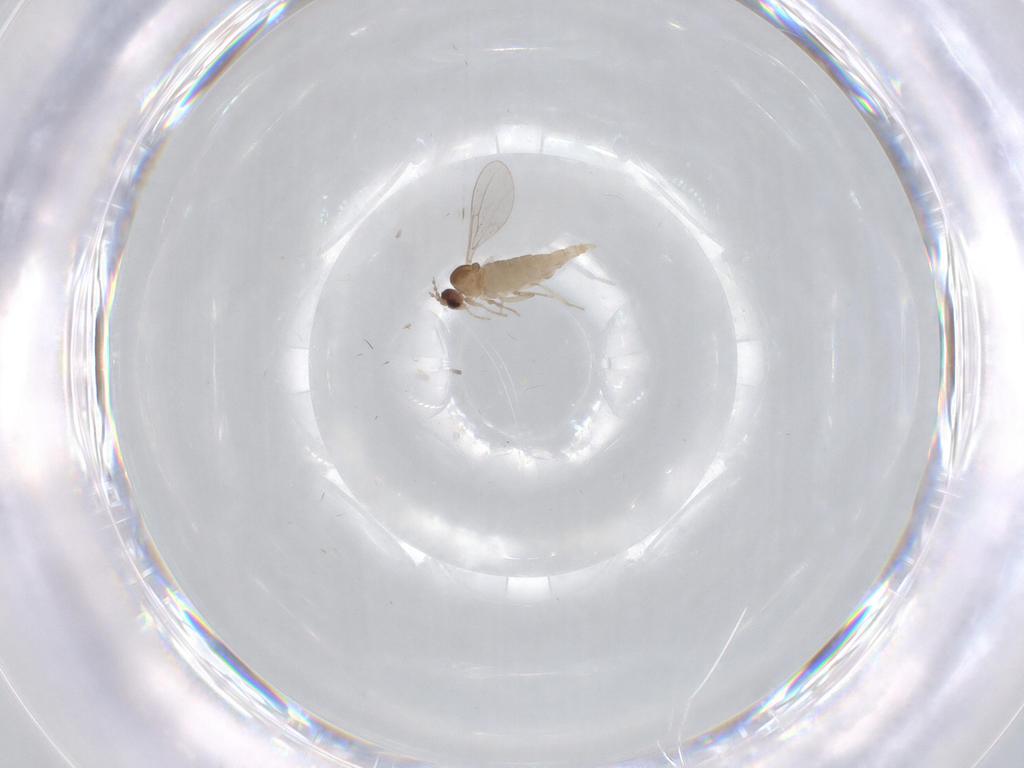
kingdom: Animalia
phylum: Arthropoda
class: Insecta
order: Diptera
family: Cecidomyiidae
